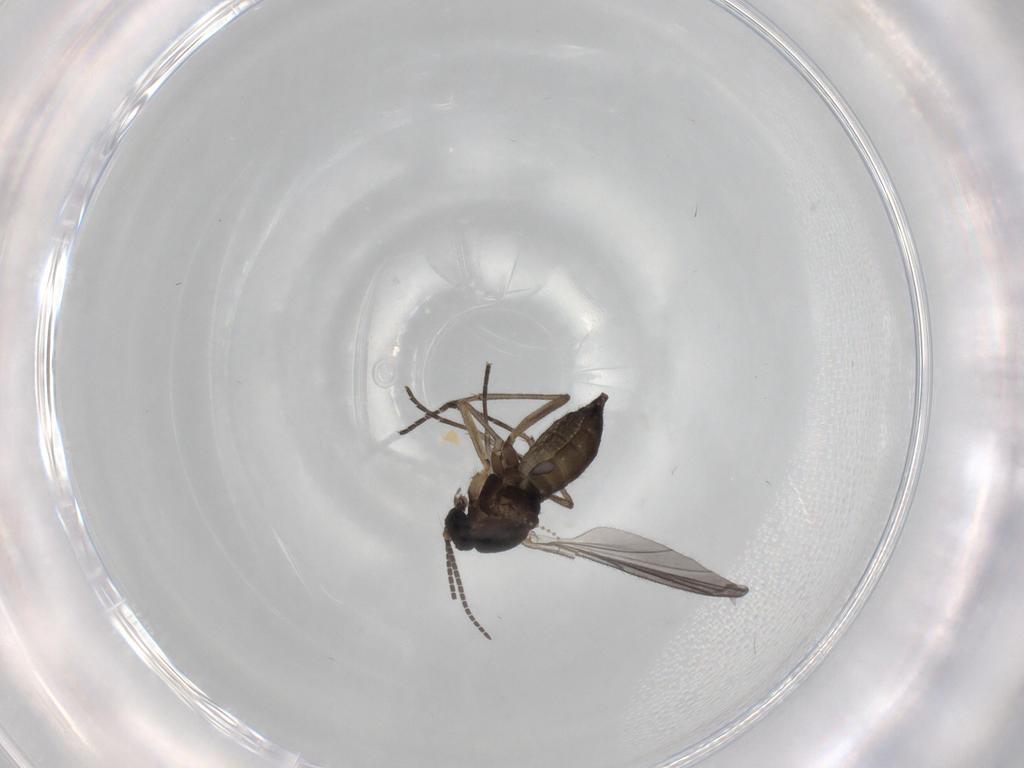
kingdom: Animalia
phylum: Arthropoda
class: Insecta
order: Diptera
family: Sciaridae
